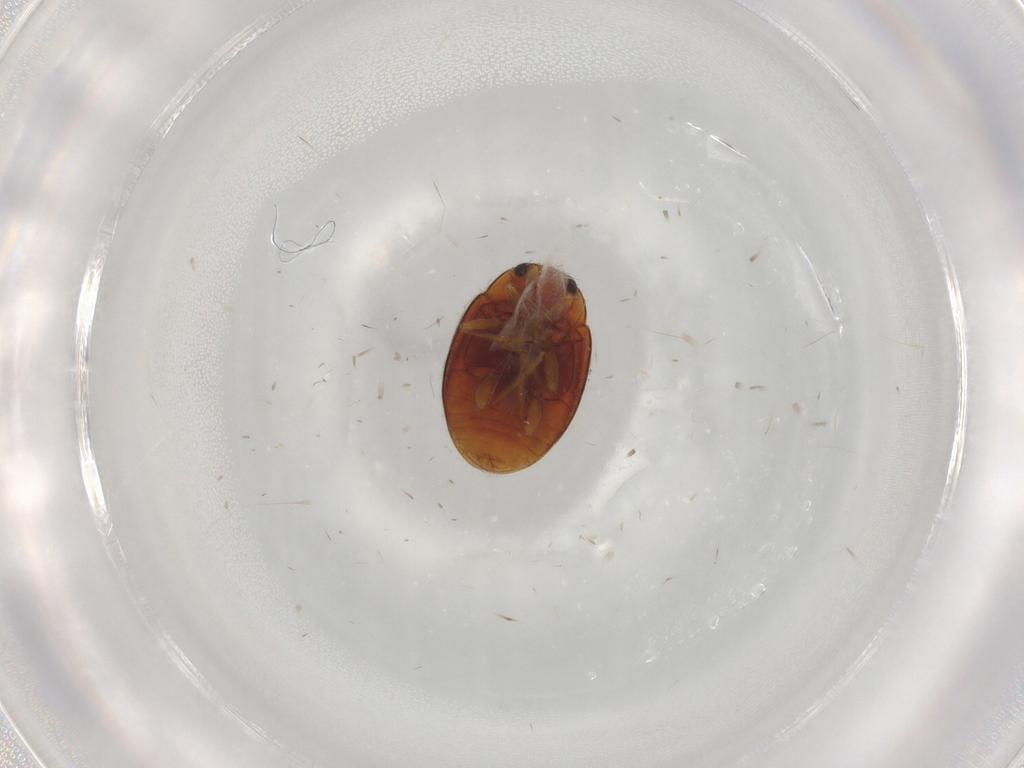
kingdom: Animalia
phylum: Arthropoda
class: Insecta
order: Coleoptera
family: Coccinellidae
